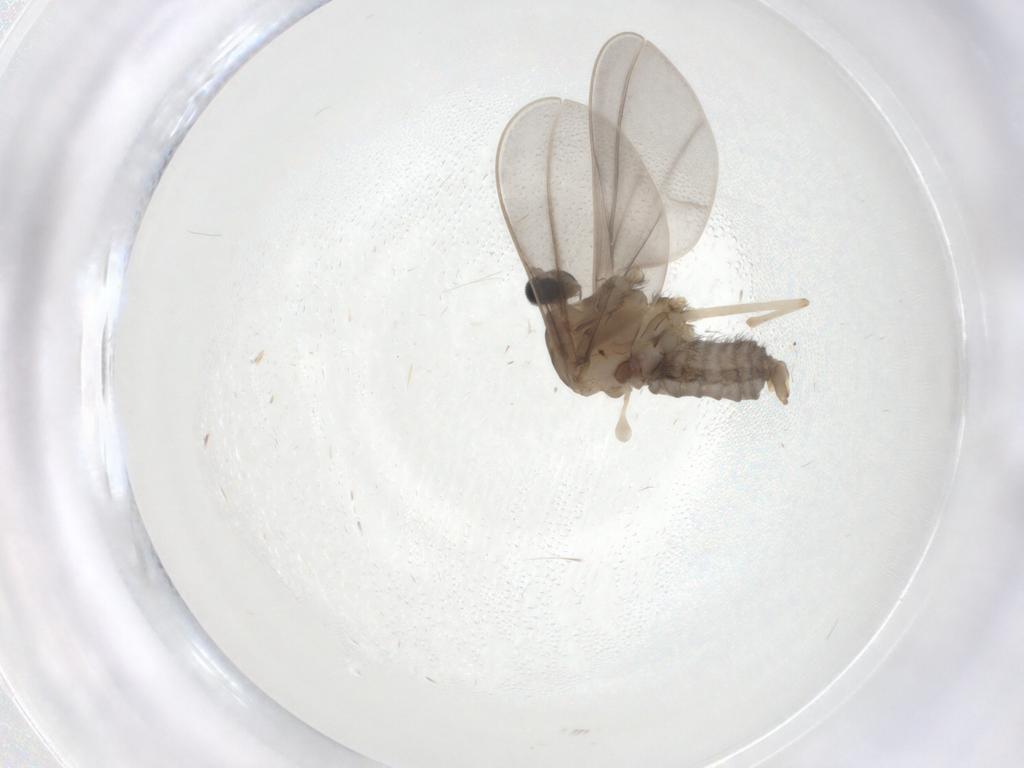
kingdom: Animalia
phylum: Arthropoda
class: Insecta
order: Diptera
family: Cecidomyiidae
